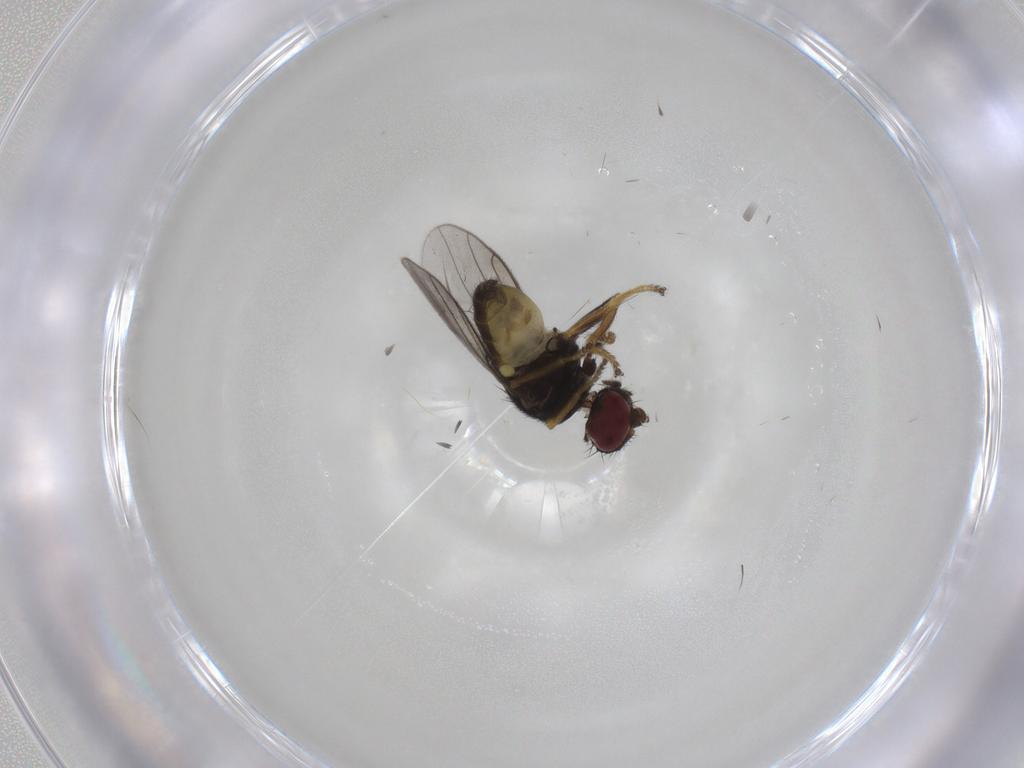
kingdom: Animalia
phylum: Arthropoda
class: Insecta
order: Diptera
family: Chloropidae
